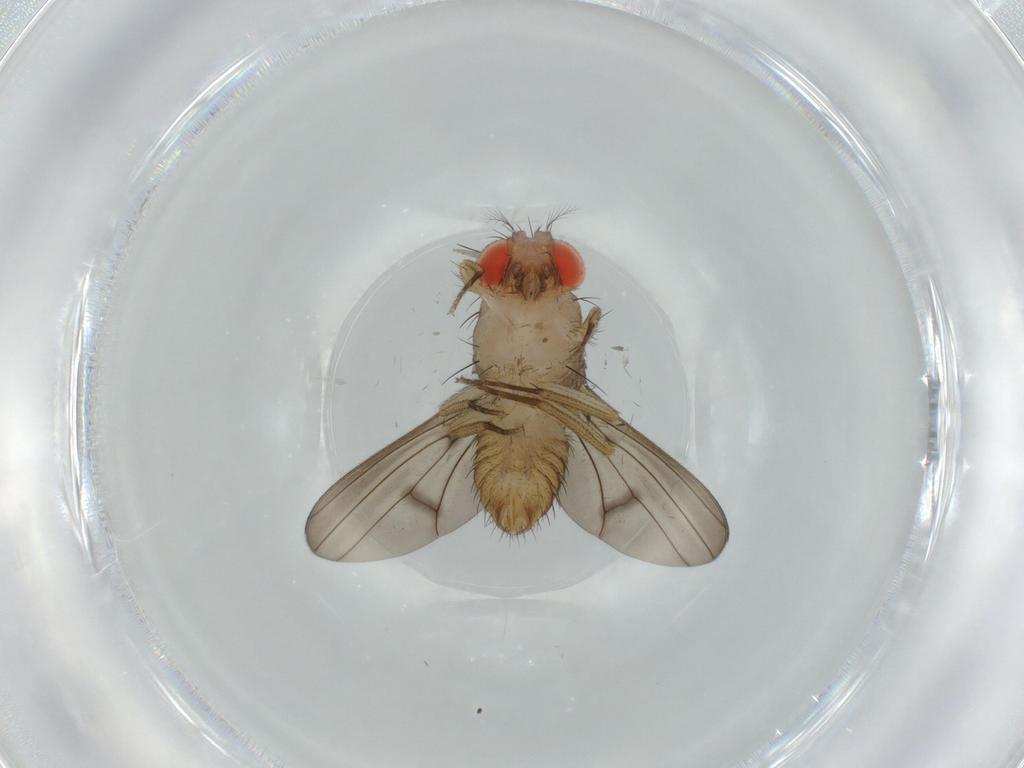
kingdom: Animalia
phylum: Arthropoda
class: Insecta
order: Diptera
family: Drosophilidae
